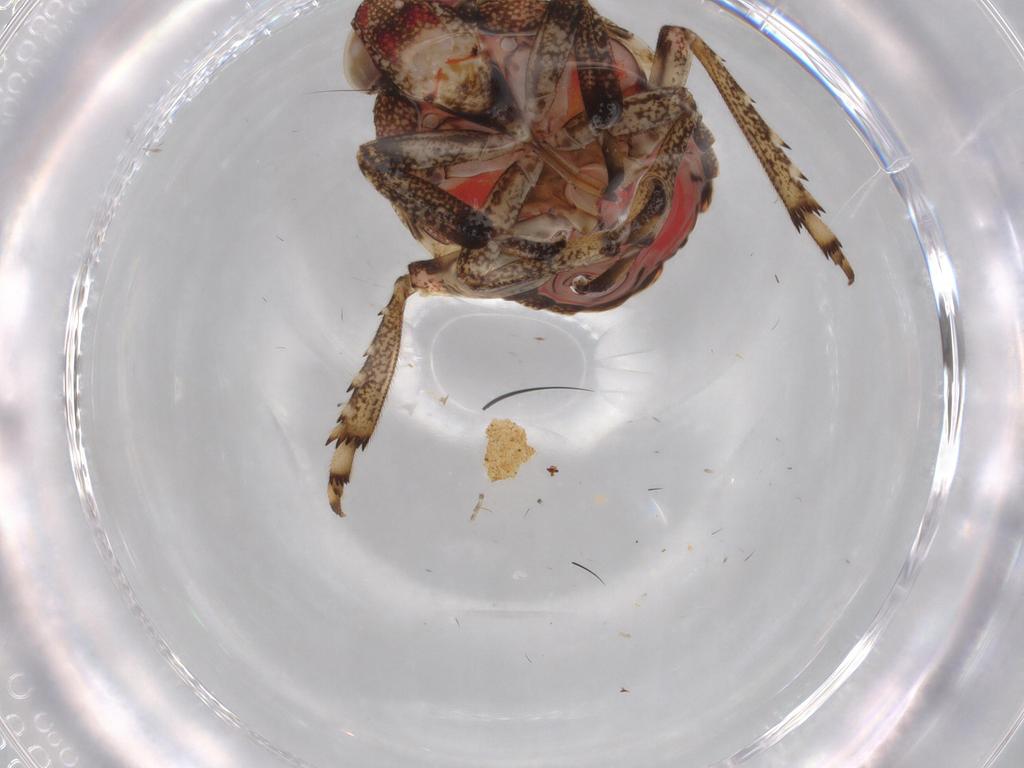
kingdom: Animalia
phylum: Arthropoda
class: Insecta
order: Hemiptera
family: Issidae
